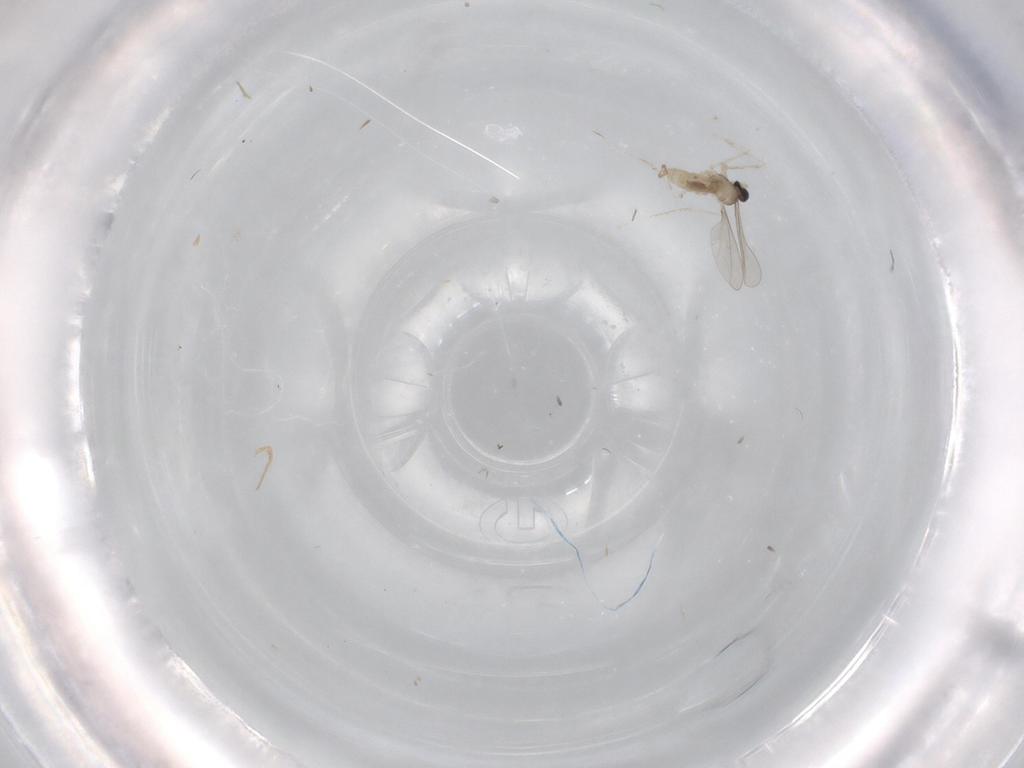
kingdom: Animalia
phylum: Arthropoda
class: Insecta
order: Diptera
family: Cecidomyiidae
